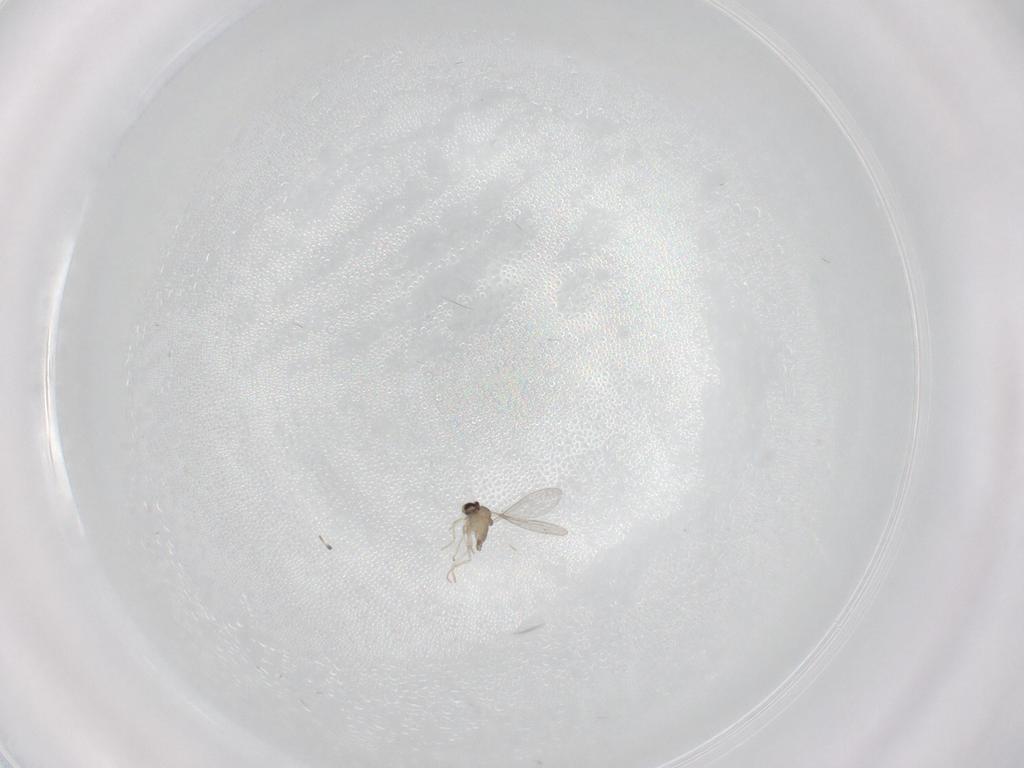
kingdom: Animalia
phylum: Arthropoda
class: Insecta
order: Diptera
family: Cecidomyiidae
